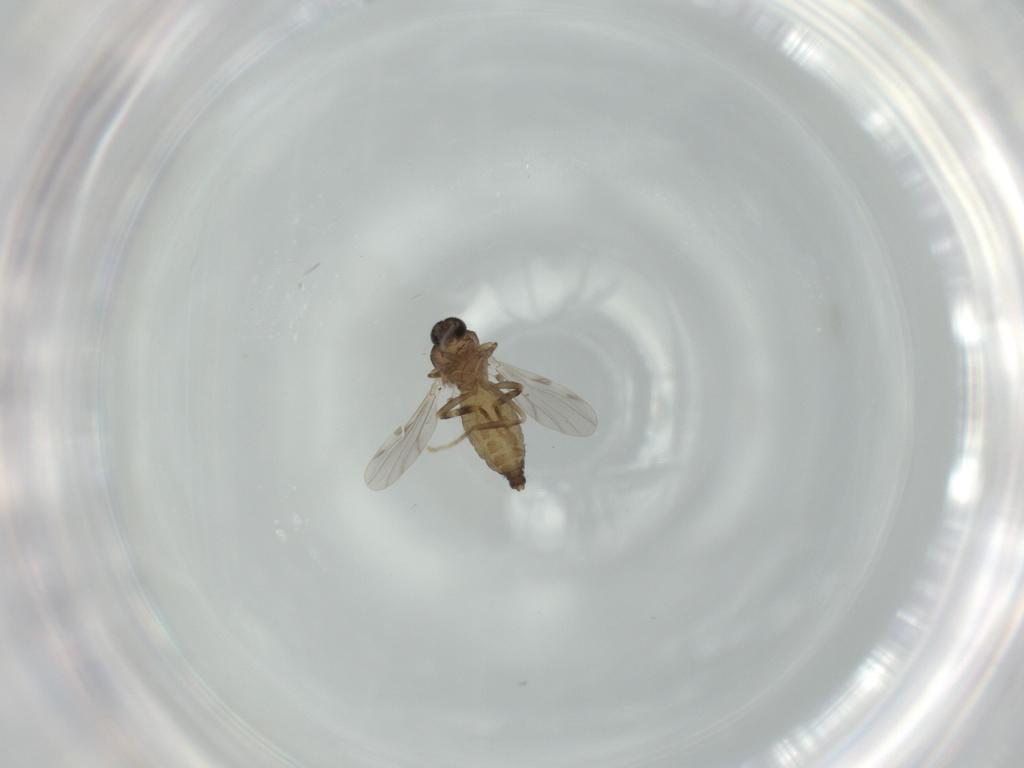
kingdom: Animalia
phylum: Arthropoda
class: Insecta
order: Diptera
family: Ceratopogonidae
